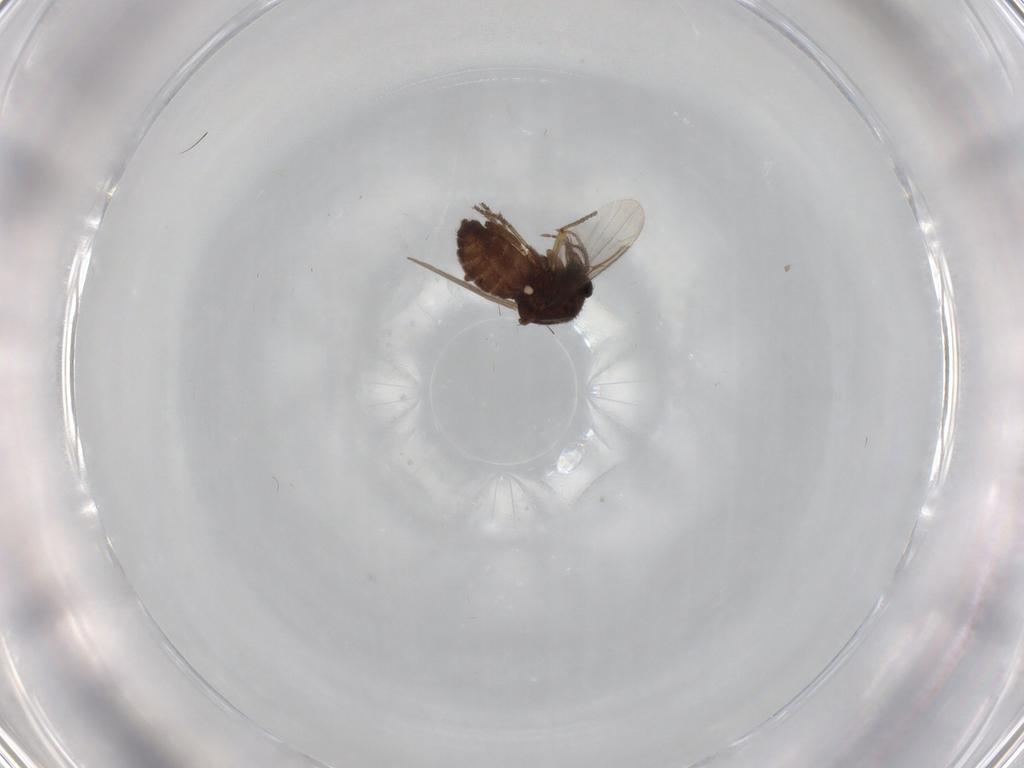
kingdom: Animalia
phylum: Arthropoda
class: Insecta
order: Diptera
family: Ceratopogonidae
